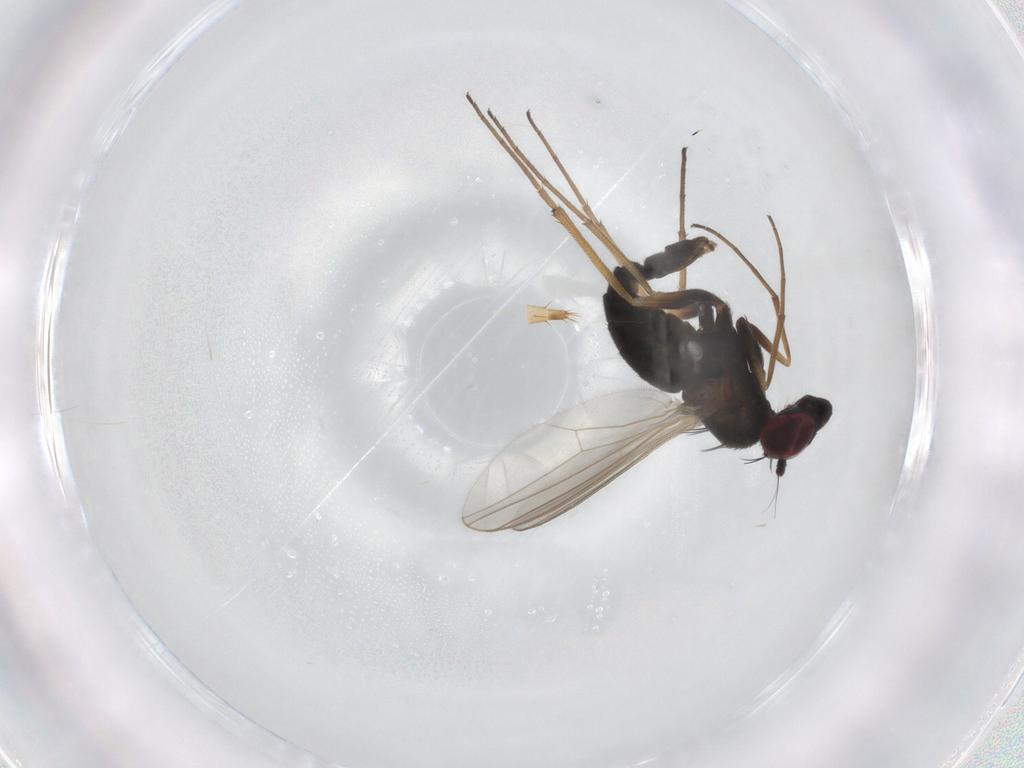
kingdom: Animalia
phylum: Arthropoda
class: Insecta
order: Diptera
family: Dolichopodidae
